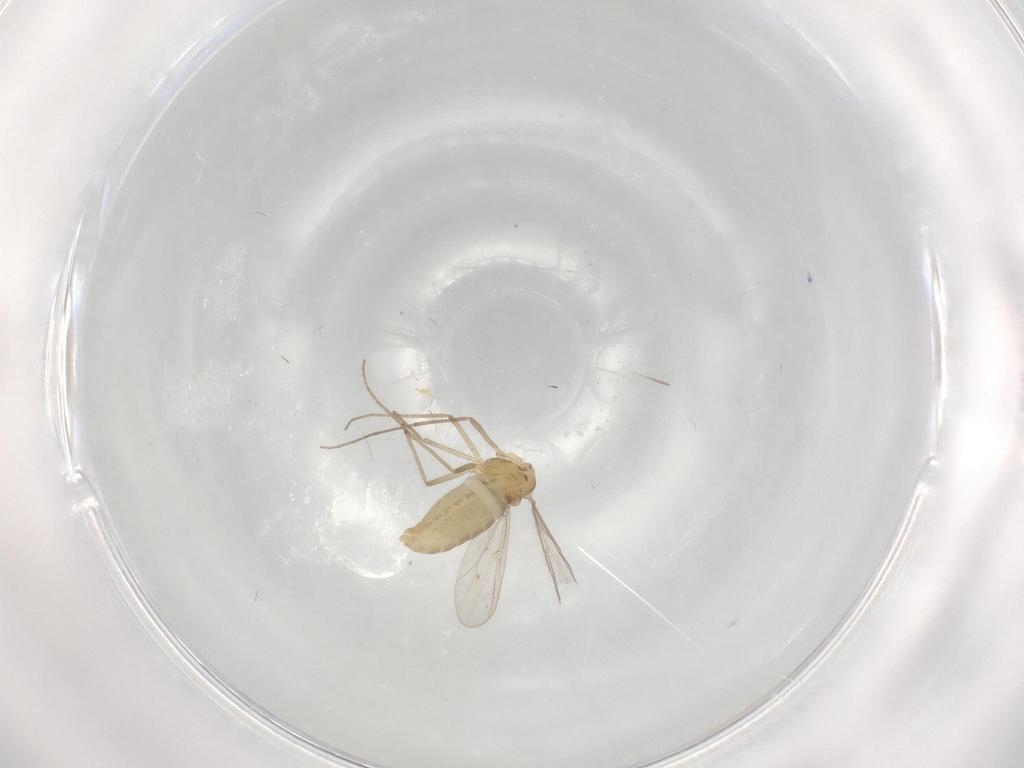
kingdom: Animalia
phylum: Arthropoda
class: Insecta
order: Diptera
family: Chironomidae
